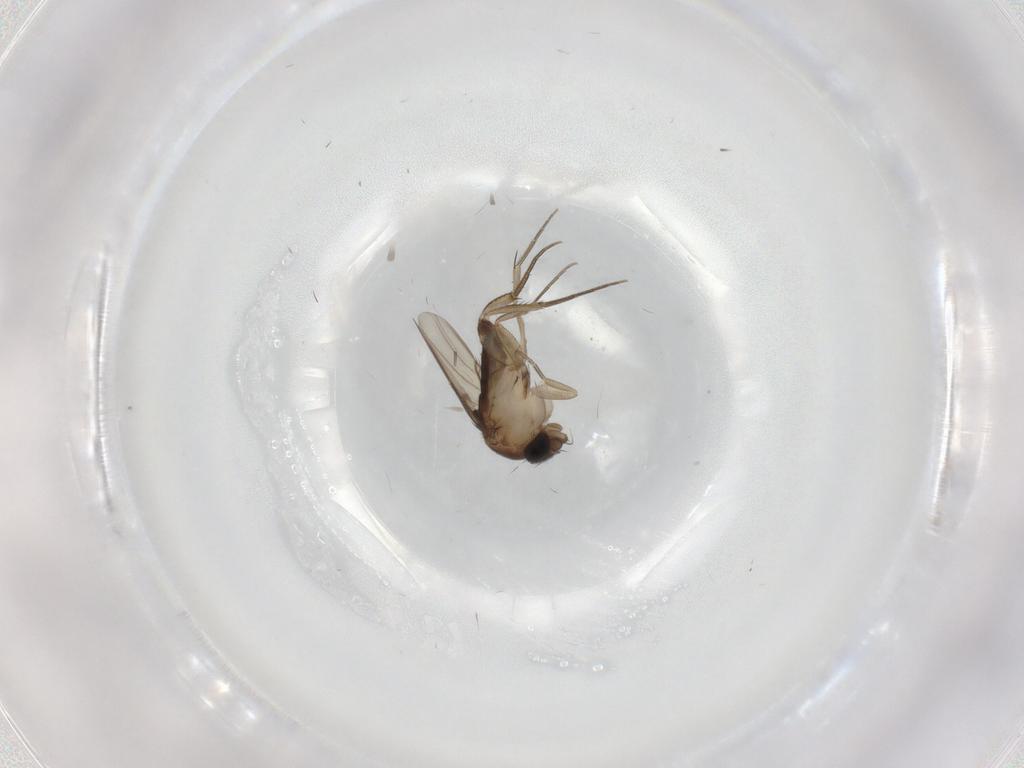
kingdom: Animalia
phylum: Arthropoda
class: Insecta
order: Diptera
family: Phoridae
